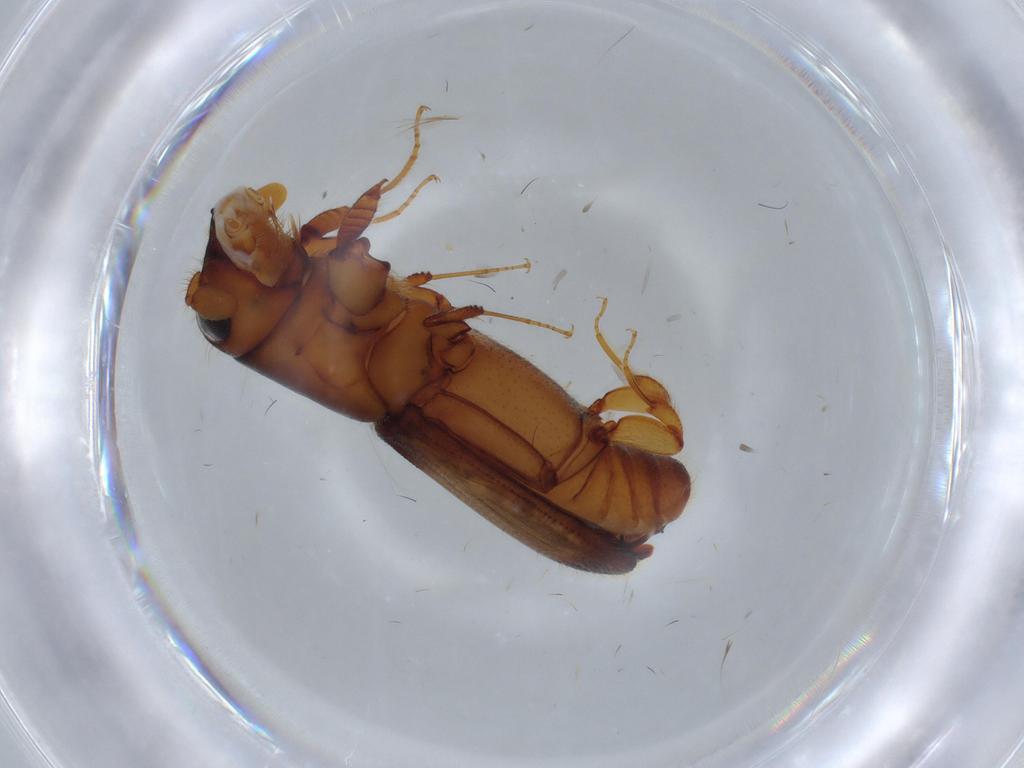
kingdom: Animalia
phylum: Arthropoda
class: Insecta
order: Coleoptera
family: Curculionidae
